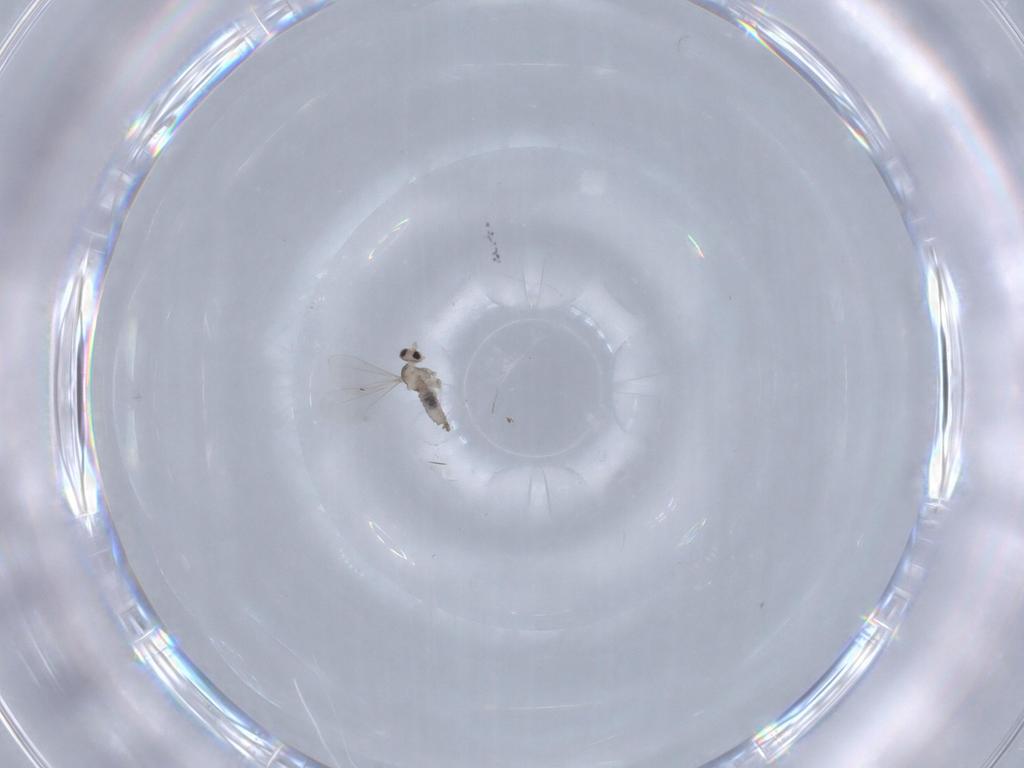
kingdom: Animalia
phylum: Arthropoda
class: Insecta
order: Diptera
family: Cecidomyiidae
